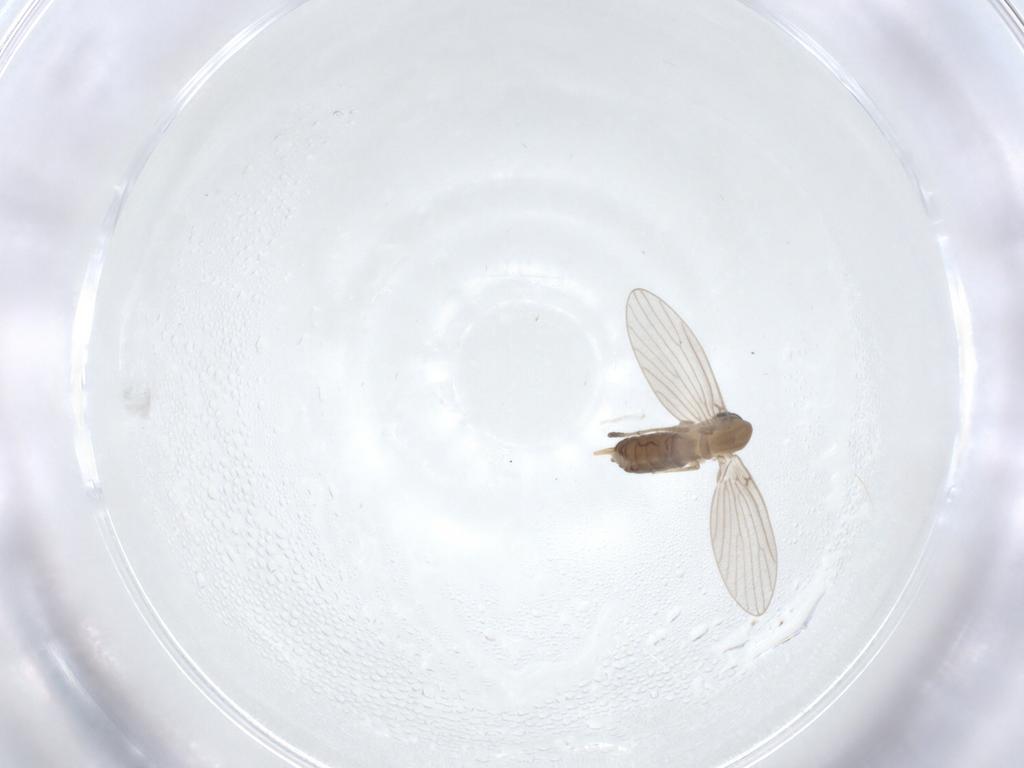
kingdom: Animalia
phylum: Arthropoda
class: Insecta
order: Diptera
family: Psychodidae
